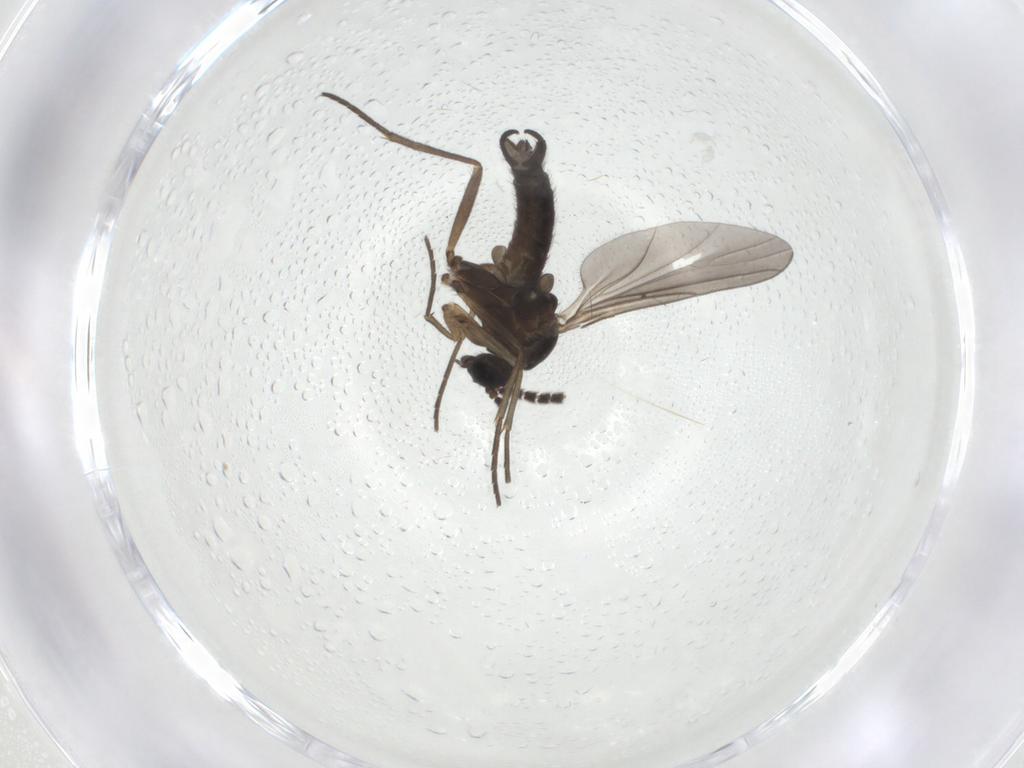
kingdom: Animalia
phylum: Arthropoda
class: Insecta
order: Diptera
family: Sciaridae
